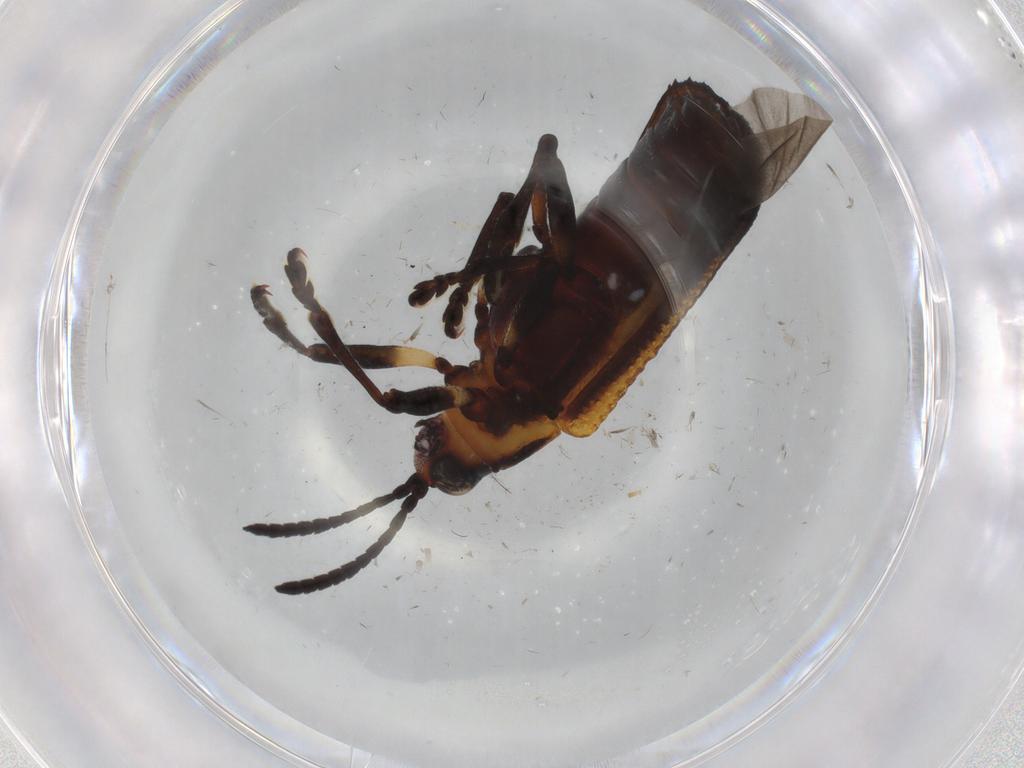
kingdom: Animalia
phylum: Arthropoda
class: Insecta
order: Coleoptera
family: Chrysomelidae
